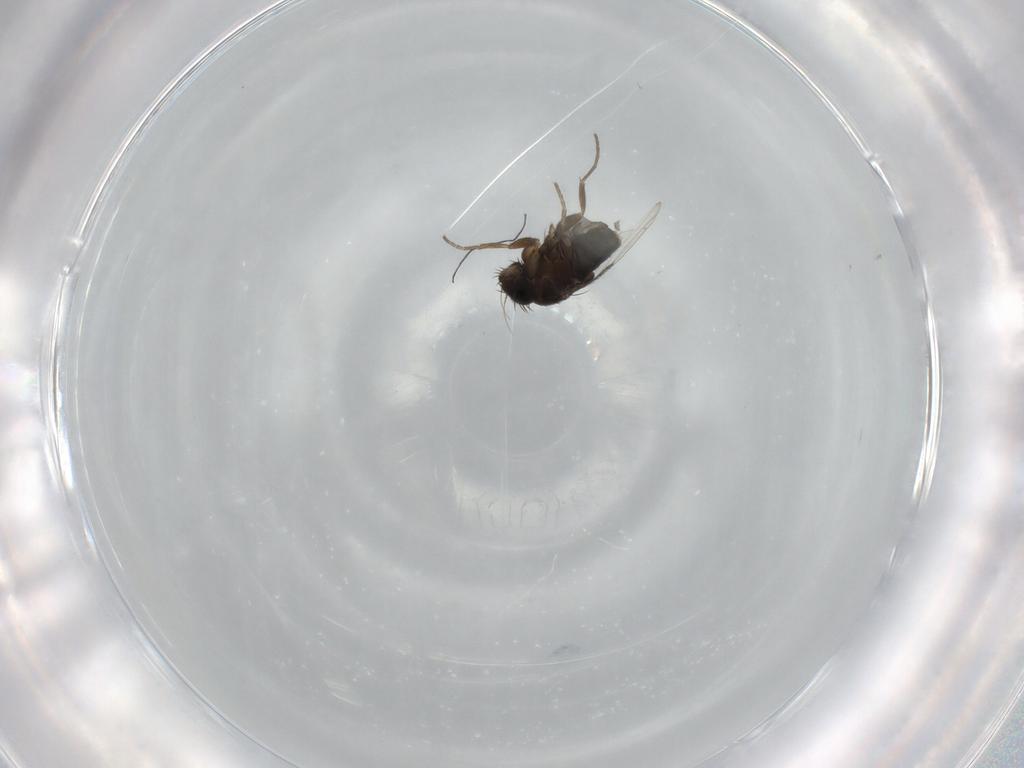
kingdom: Animalia
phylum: Arthropoda
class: Insecta
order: Diptera
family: Phoridae
